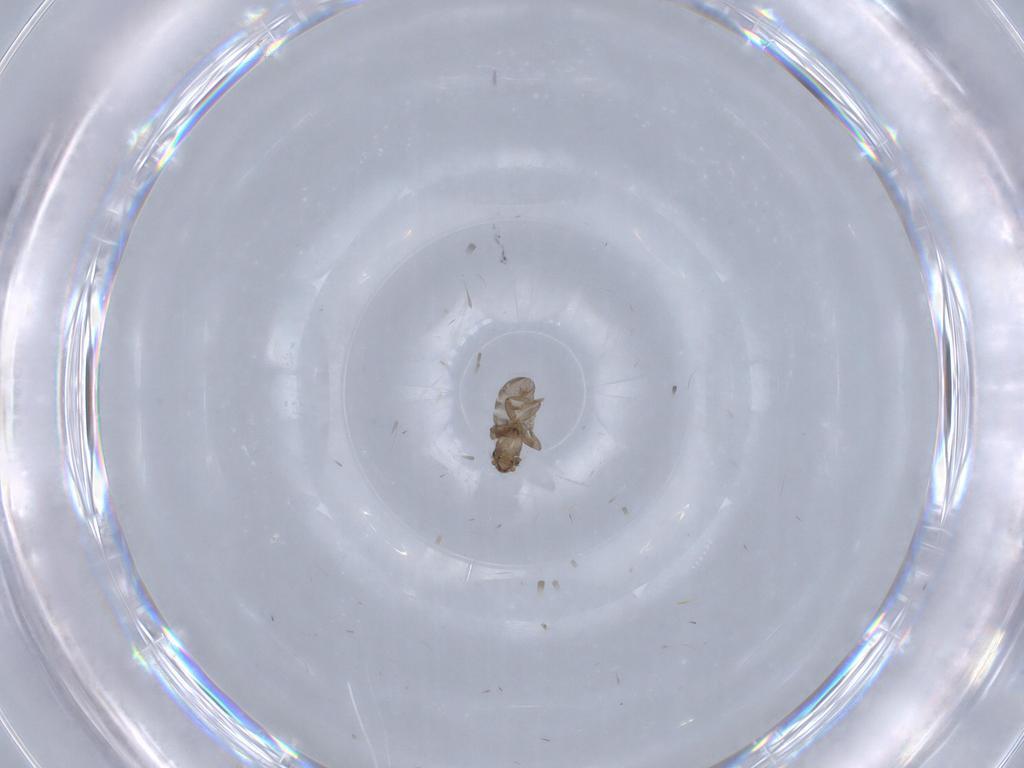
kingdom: Animalia
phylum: Arthropoda
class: Insecta
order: Diptera
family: Chironomidae
